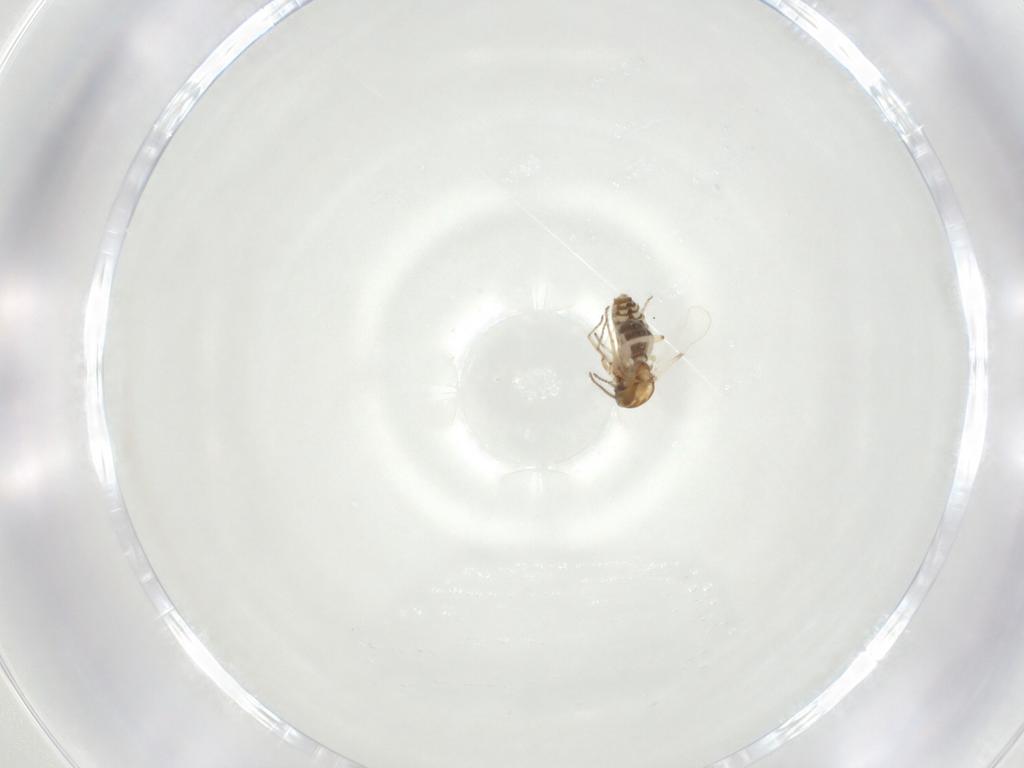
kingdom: Animalia
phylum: Arthropoda
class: Insecta
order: Diptera
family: Ceratopogonidae
